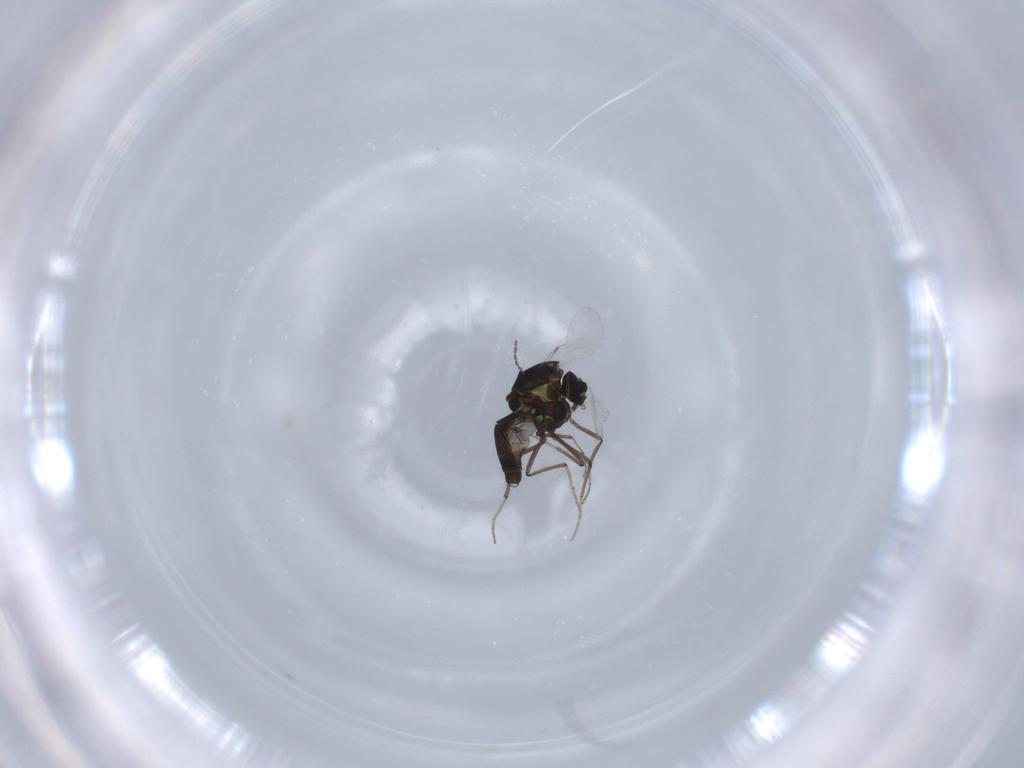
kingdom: Animalia
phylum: Arthropoda
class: Insecta
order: Diptera
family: Ceratopogonidae
